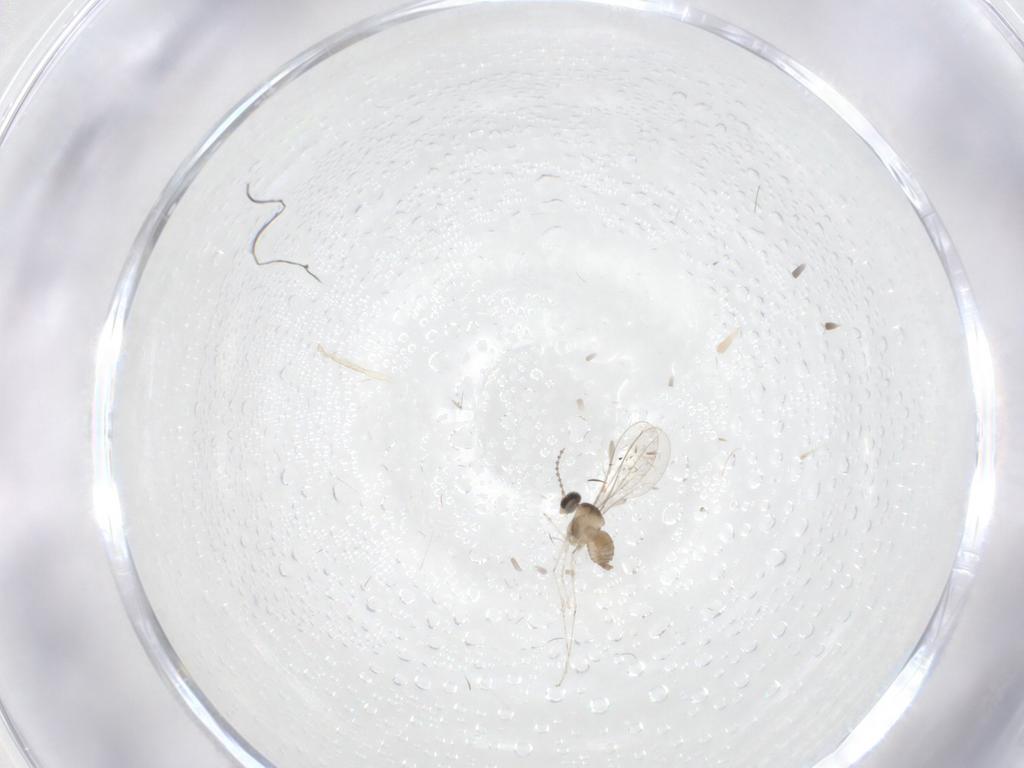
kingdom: Animalia
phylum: Arthropoda
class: Insecta
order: Diptera
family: Cecidomyiidae
